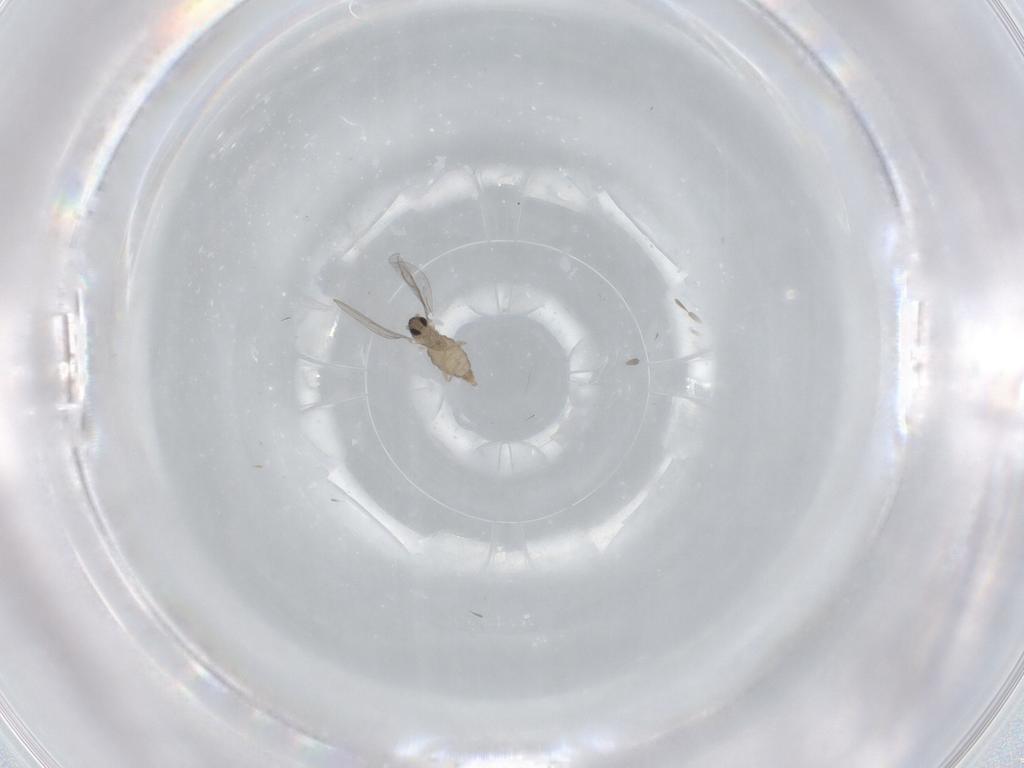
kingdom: Animalia
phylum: Arthropoda
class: Insecta
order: Diptera
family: Cecidomyiidae
